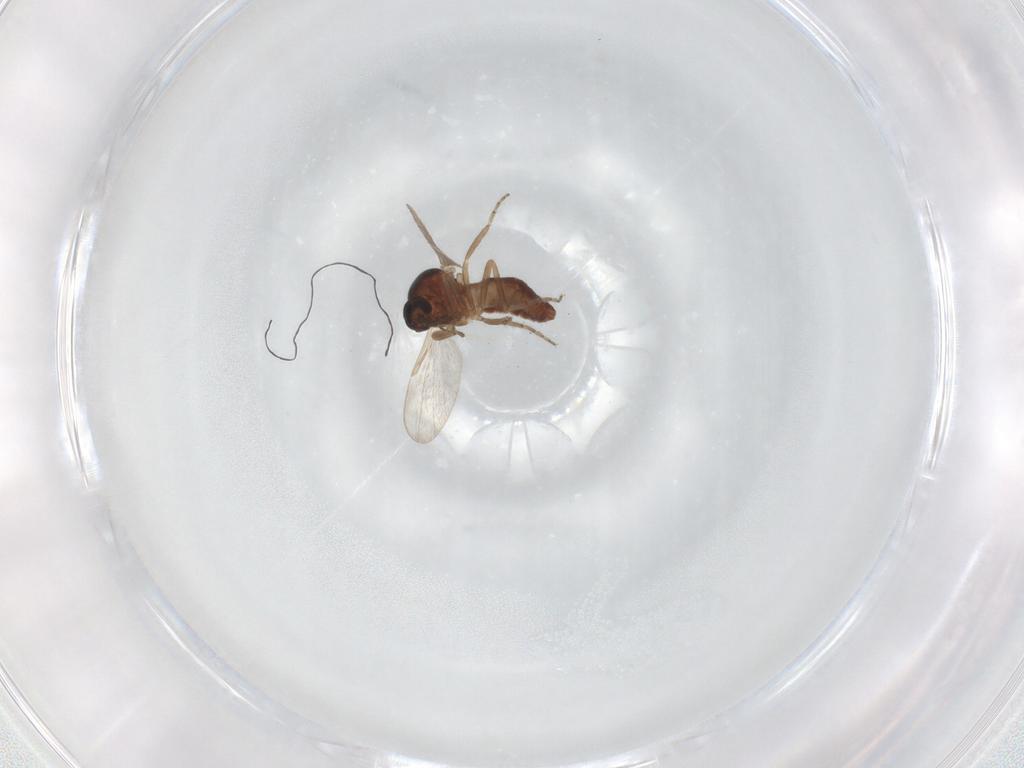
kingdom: Animalia
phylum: Arthropoda
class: Insecta
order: Diptera
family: Ceratopogonidae
